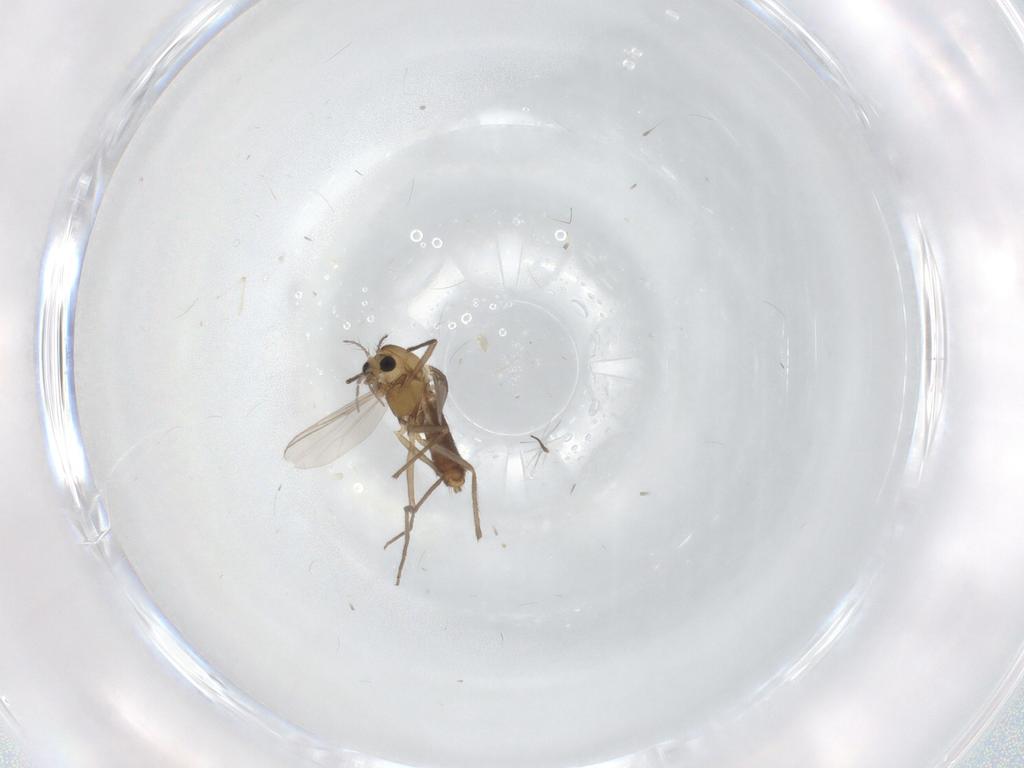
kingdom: Animalia
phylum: Arthropoda
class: Insecta
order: Diptera
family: Chironomidae
